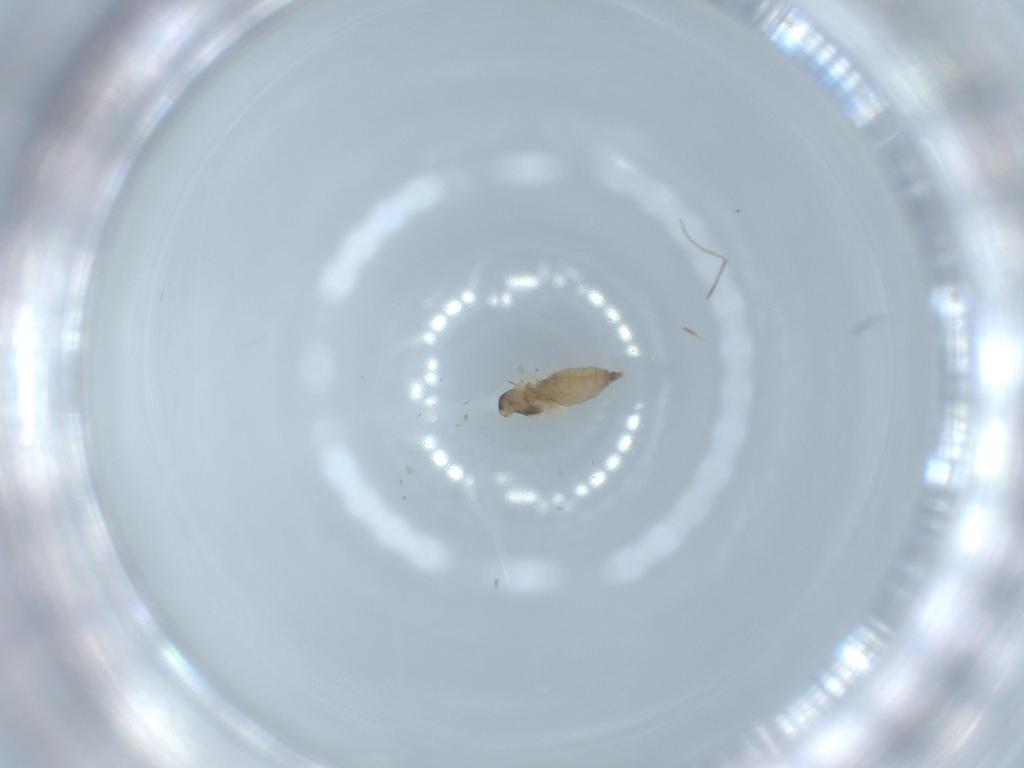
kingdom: Animalia
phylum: Arthropoda
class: Insecta
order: Diptera
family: Chironomidae
